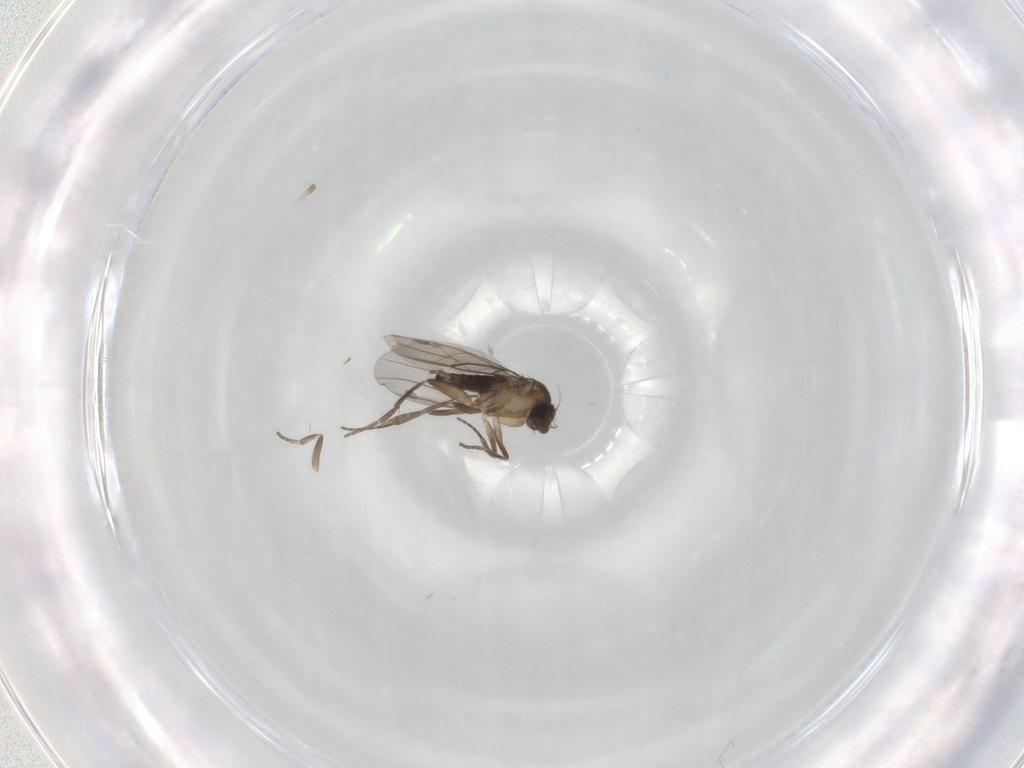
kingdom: Animalia
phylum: Arthropoda
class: Insecta
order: Diptera
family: Phoridae
